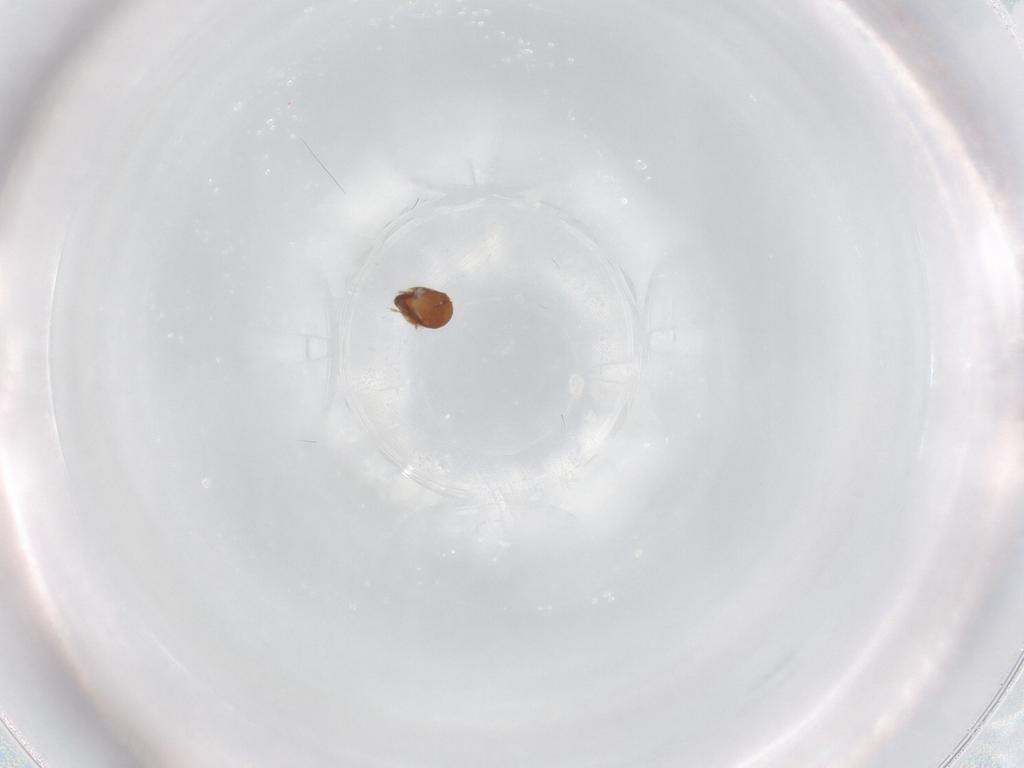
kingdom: Animalia
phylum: Arthropoda
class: Arachnida
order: Sarcoptiformes
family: Tegoribatidae
